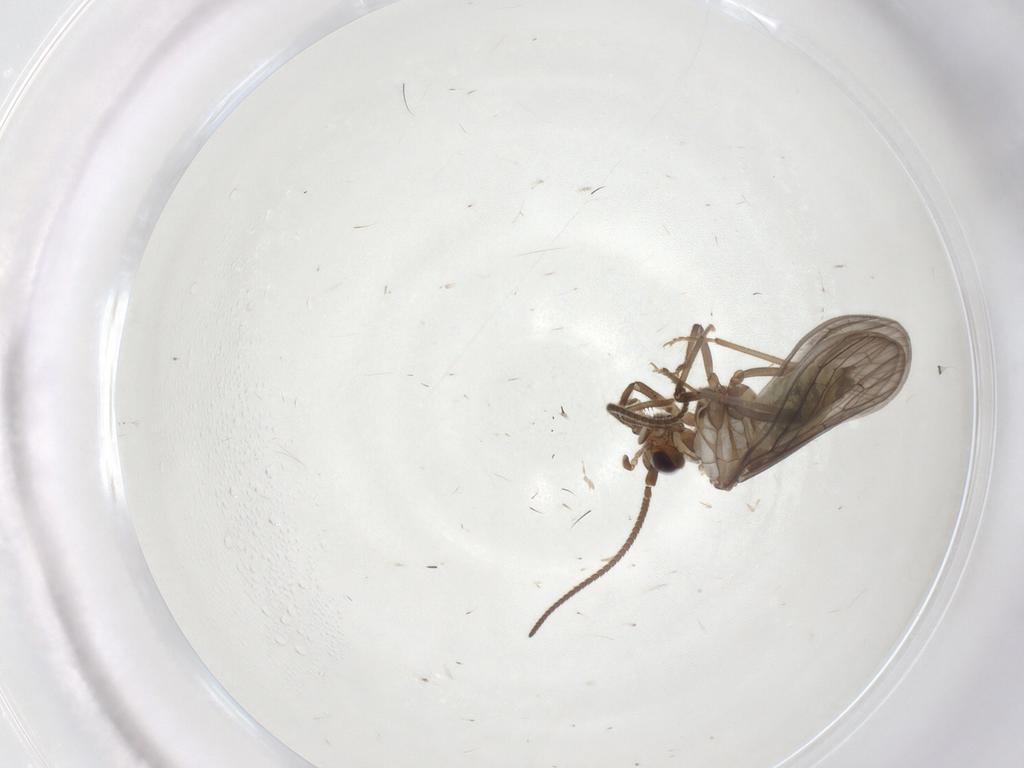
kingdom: Animalia
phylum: Arthropoda
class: Insecta
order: Neuroptera
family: Coniopterygidae
